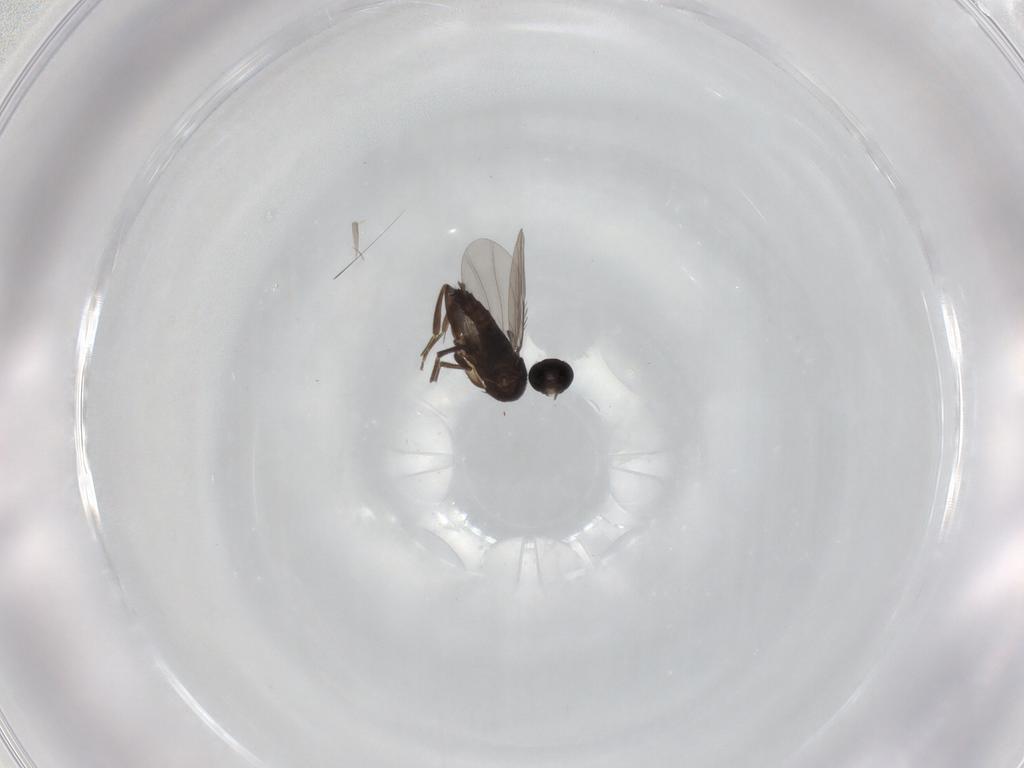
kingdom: Animalia
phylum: Arthropoda
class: Insecta
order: Diptera
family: Phoridae
